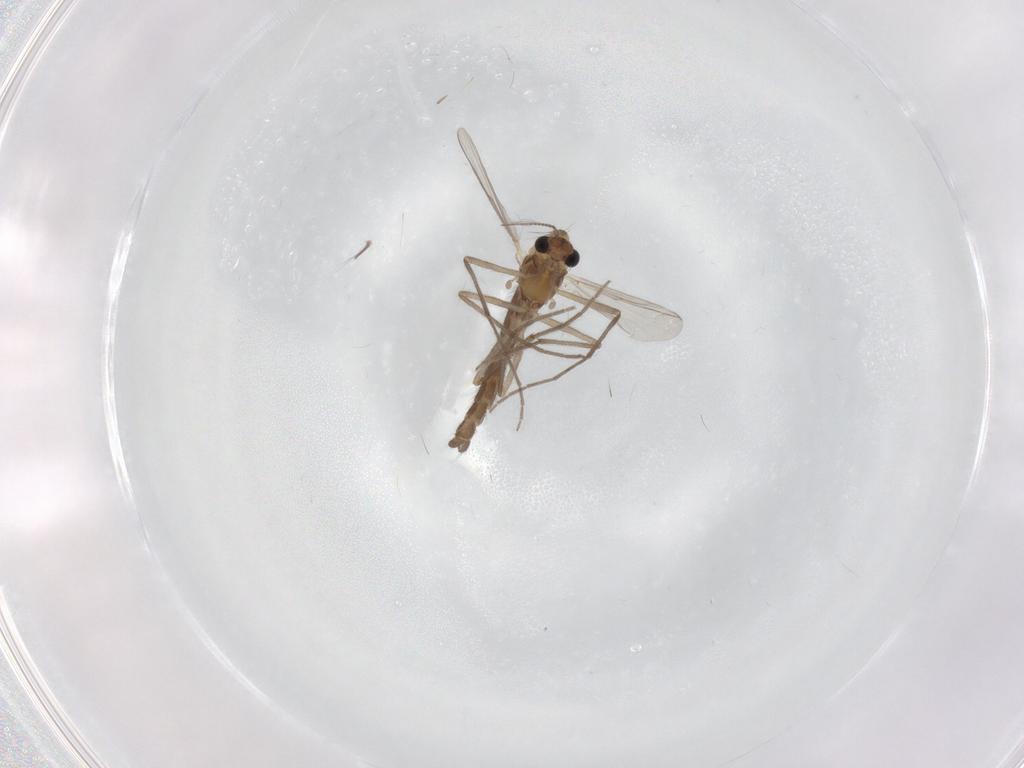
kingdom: Animalia
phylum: Arthropoda
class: Insecta
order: Diptera
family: Chironomidae
